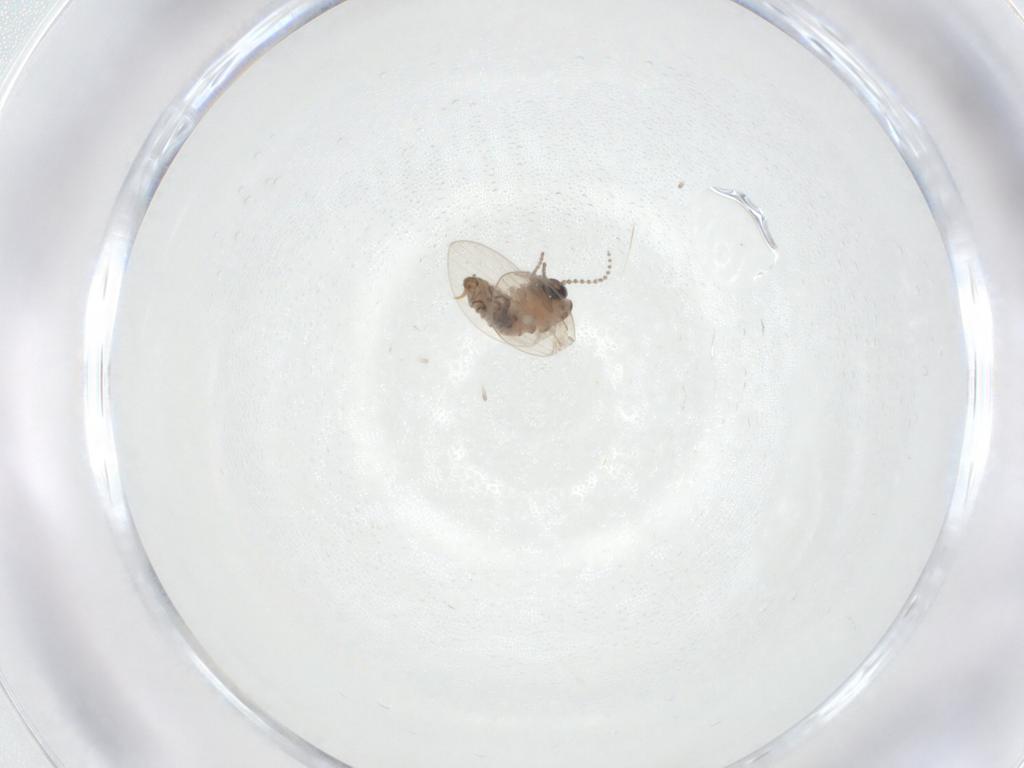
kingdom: Animalia
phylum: Arthropoda
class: Insecta
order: Diptera
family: Psychodidae
